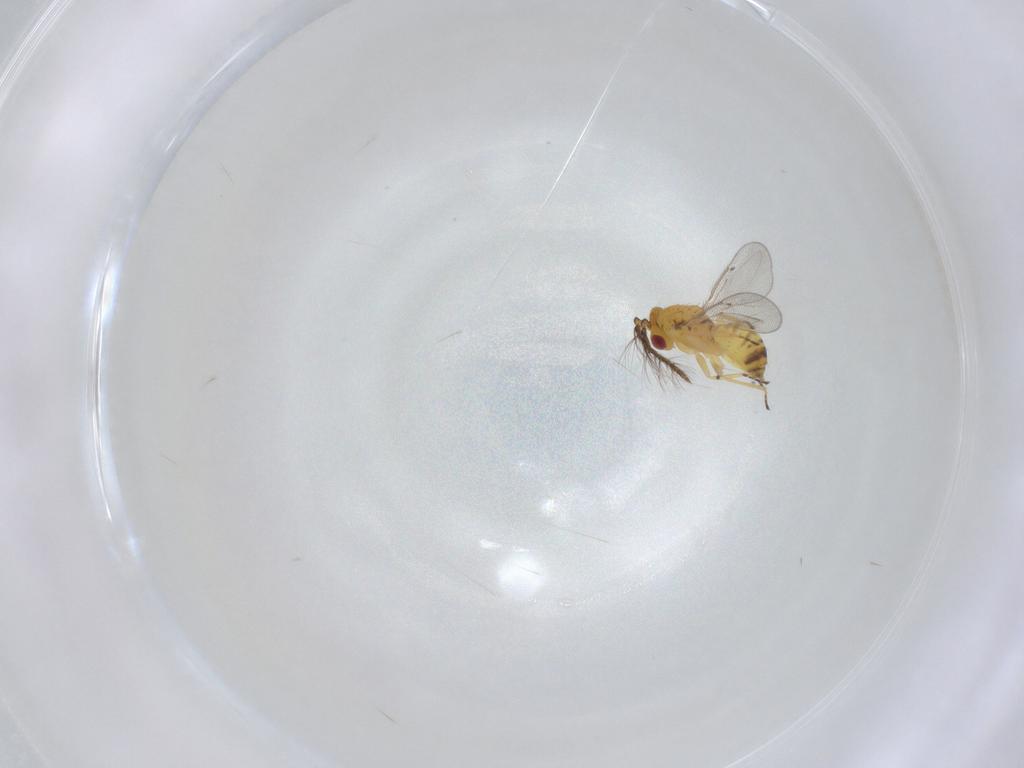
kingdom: Animalia
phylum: Arthropoda
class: Insecta
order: Hymenoptera
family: Eulophidae
